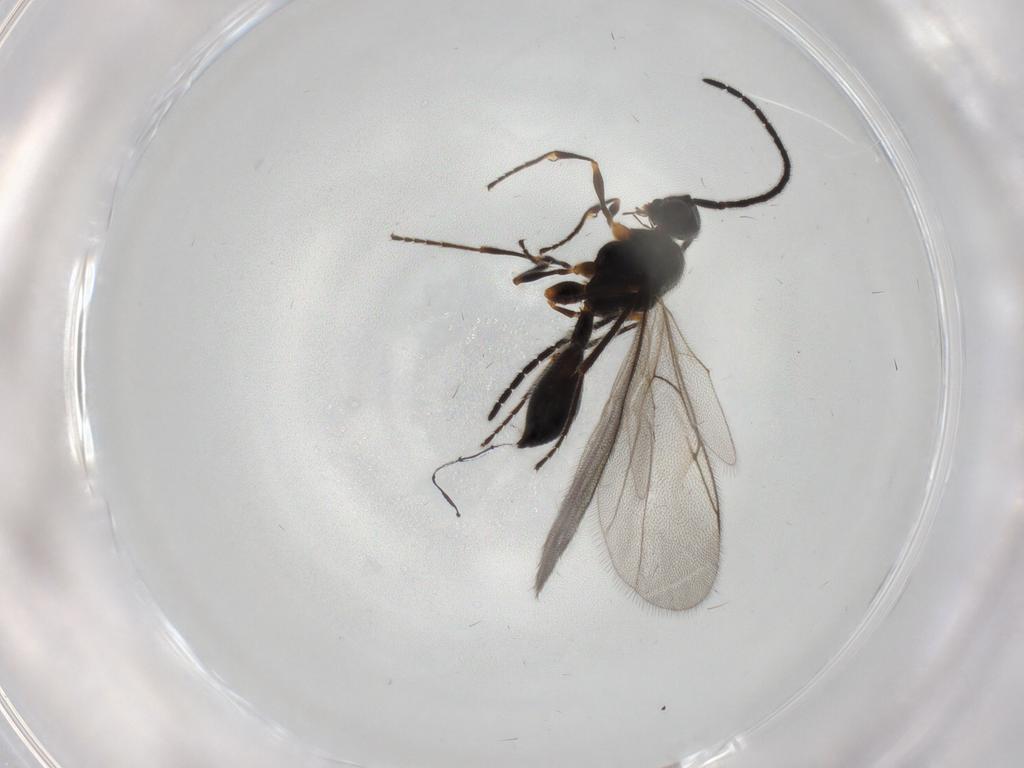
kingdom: Animalia
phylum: Arthropoda
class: Insecta
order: Hymenoptera
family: Diapriidae
